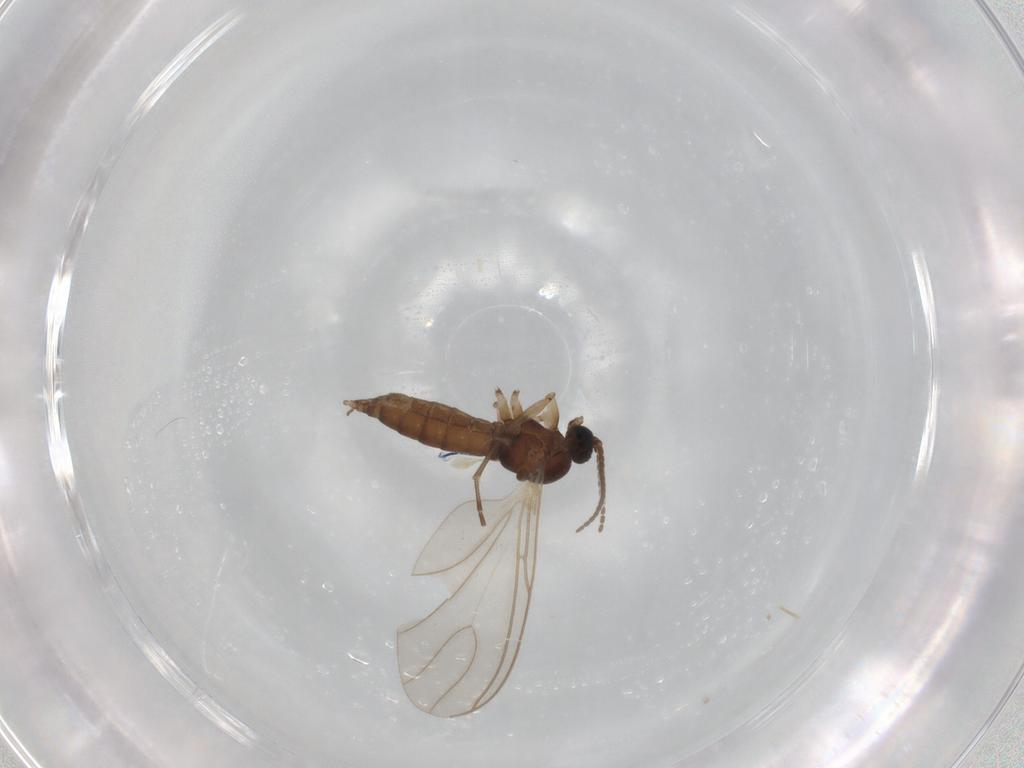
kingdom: Animalia
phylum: Arthropoda
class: Insecta
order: Diptera
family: Sciaridae
